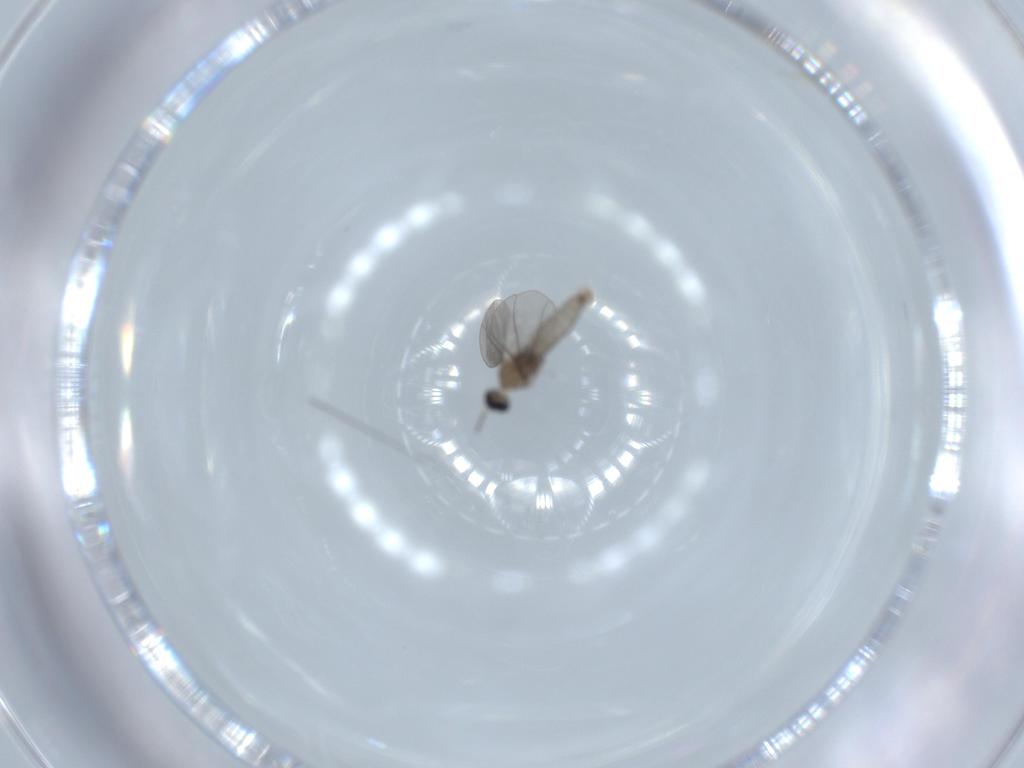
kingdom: Animalia
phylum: Arthropoda
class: Insecta
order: Diptera
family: Cecidomyiidae
